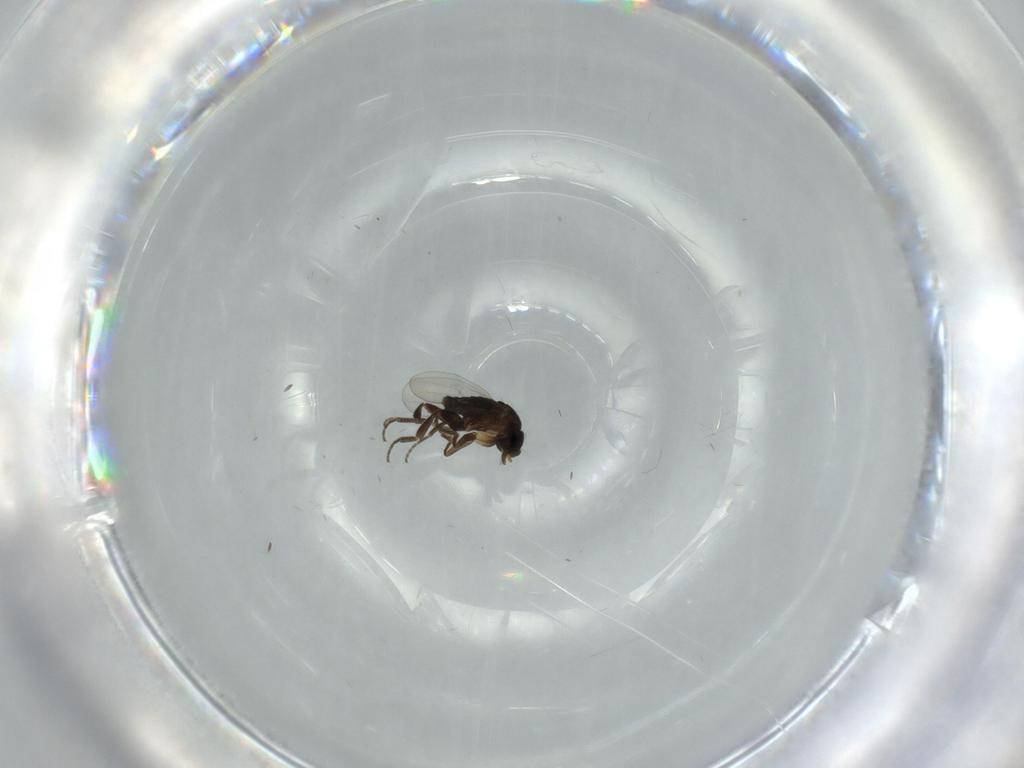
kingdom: Animalia
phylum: Arthropoda
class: Insecta
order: Diptera
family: Phoridae
